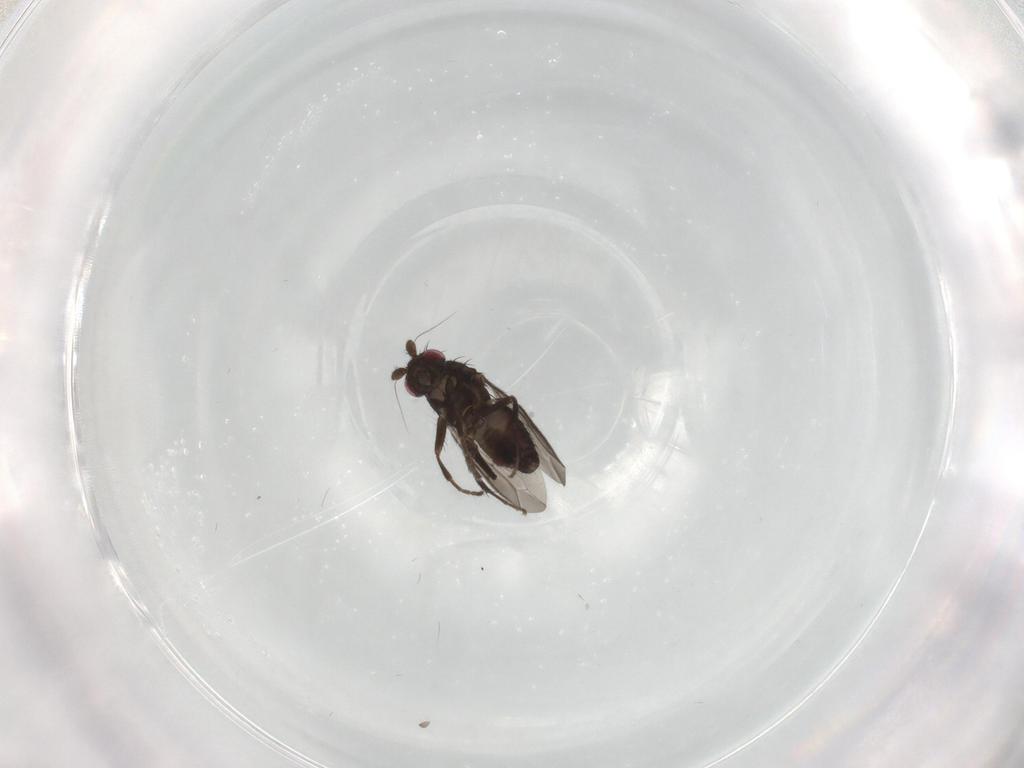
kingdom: Animalia
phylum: Arthropoda
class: Insecta
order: Diptera
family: Sphaeroceridae
